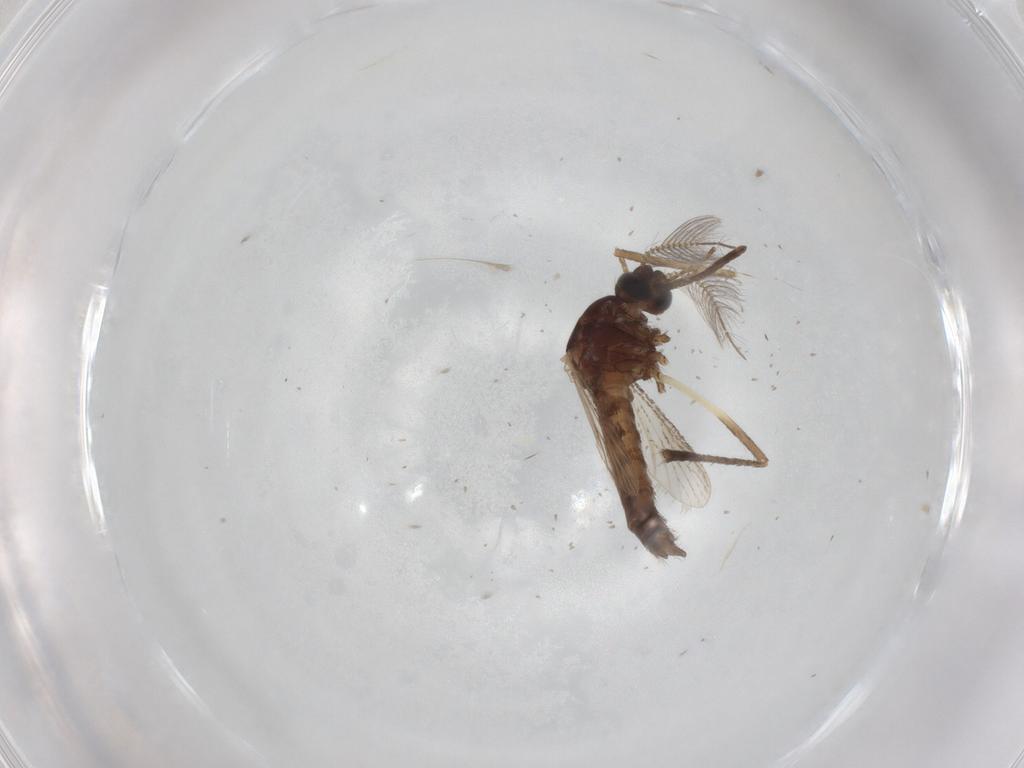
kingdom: Animalia
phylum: Arthropoda
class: Insecta
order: Diptera
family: Culicidae
